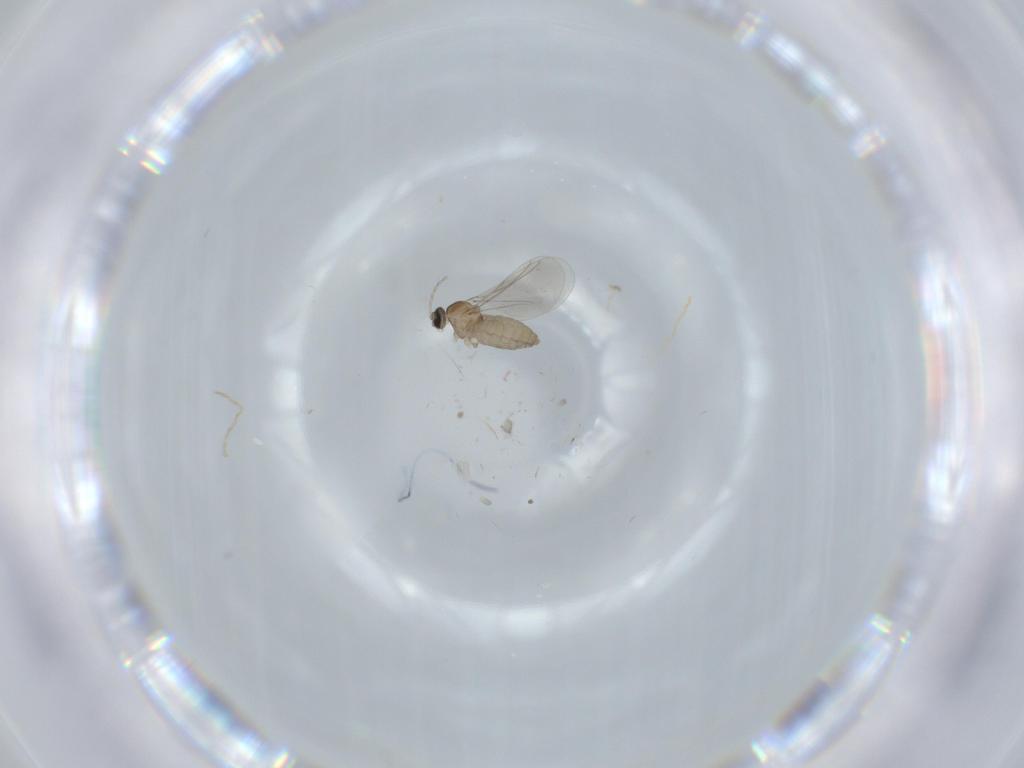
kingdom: Animalia
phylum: Arthropoda
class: Insecta
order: Diptera
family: Cecidomyiidae
